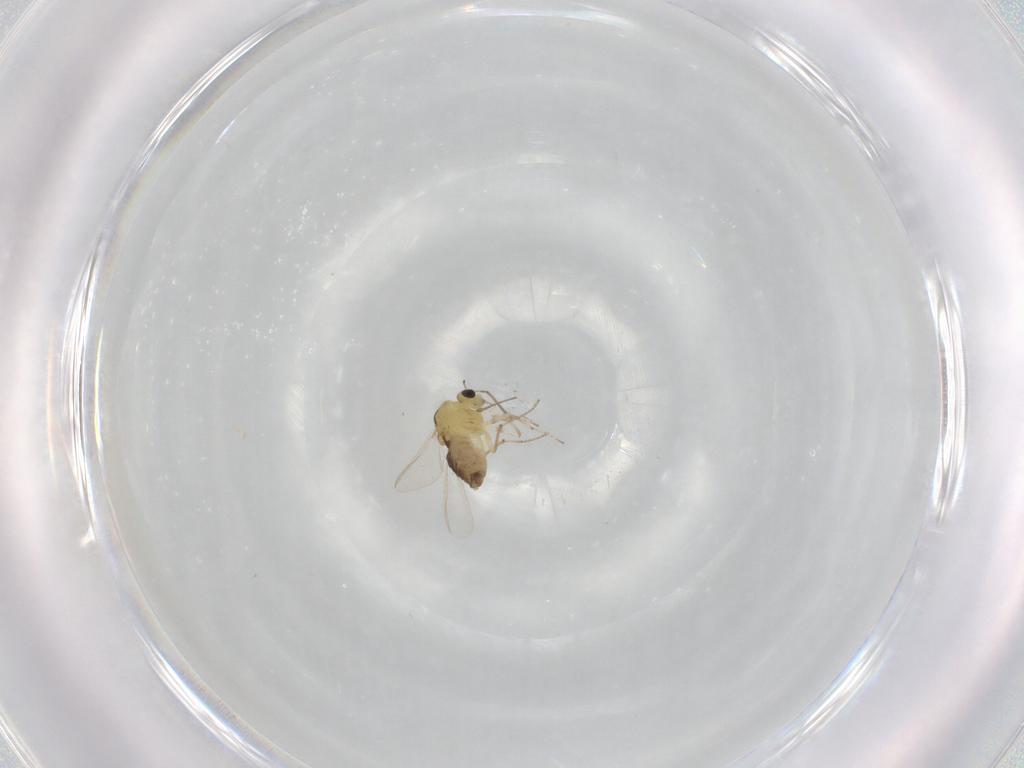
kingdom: Animalia
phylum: Arthropoda
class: Insecta
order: Diptera
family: Chironomidae
